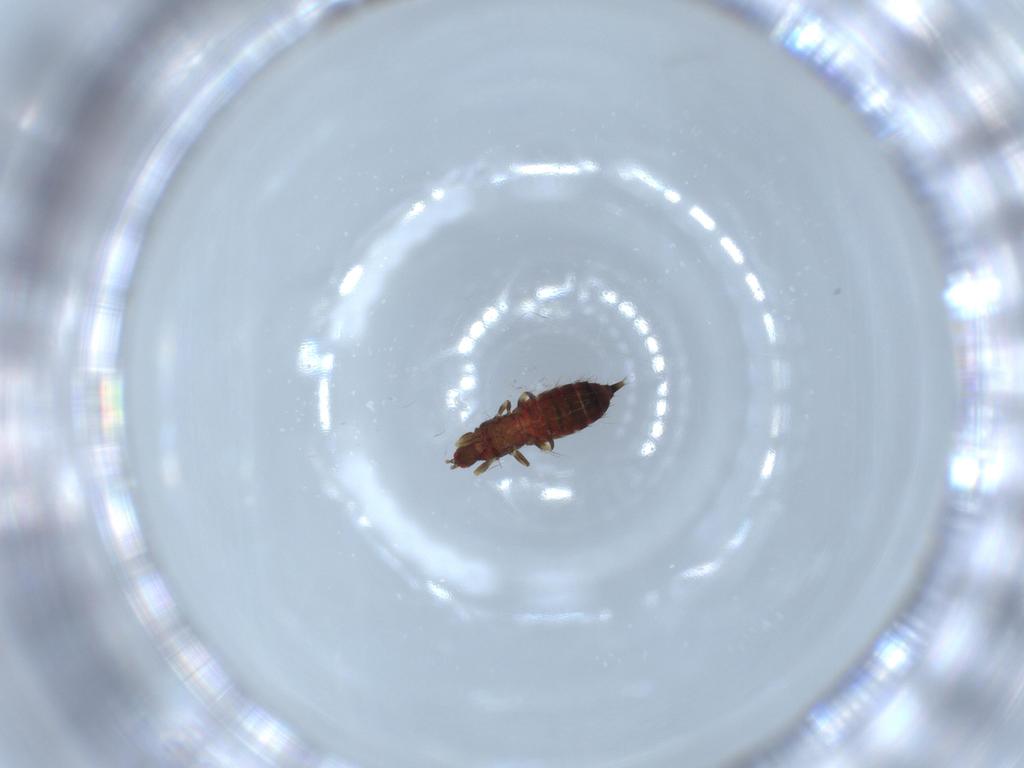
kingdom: Animalia
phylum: Arthropoda
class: Insecta
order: Thysanoptera
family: Phlaeothripidae
